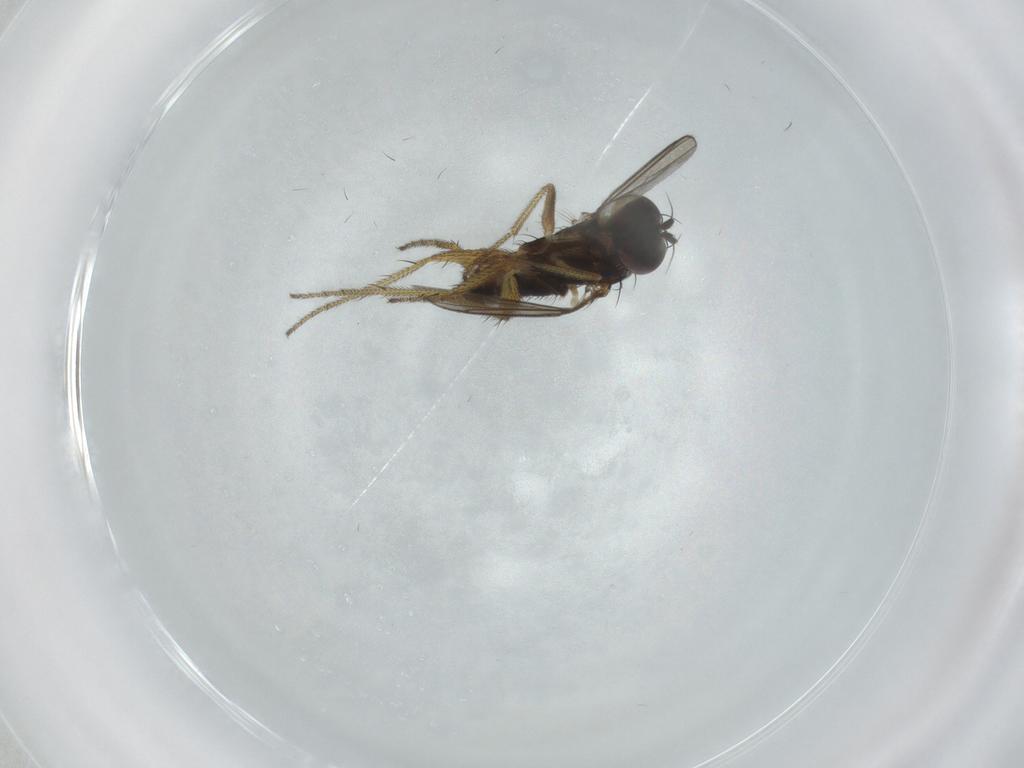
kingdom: Animalia
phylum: Arthropoda
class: Insecta
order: Diptera
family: Dolichopodidae
